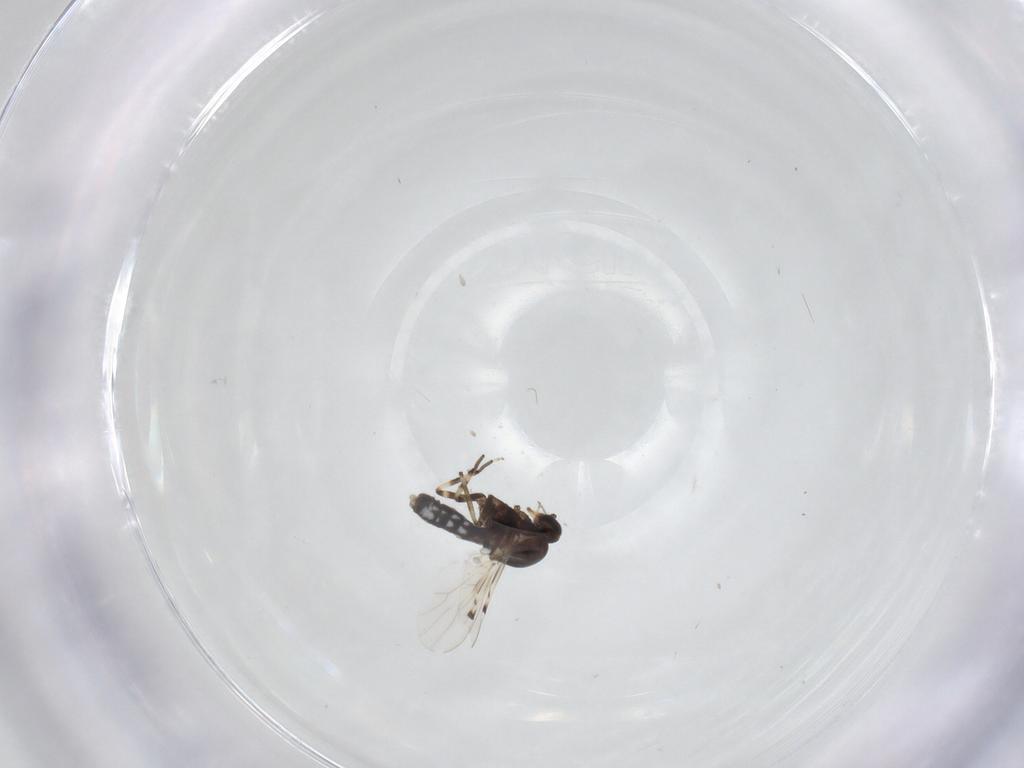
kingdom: Animalia
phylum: Arthropoda
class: Insecta
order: Diptera
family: Ceratopogonidae
